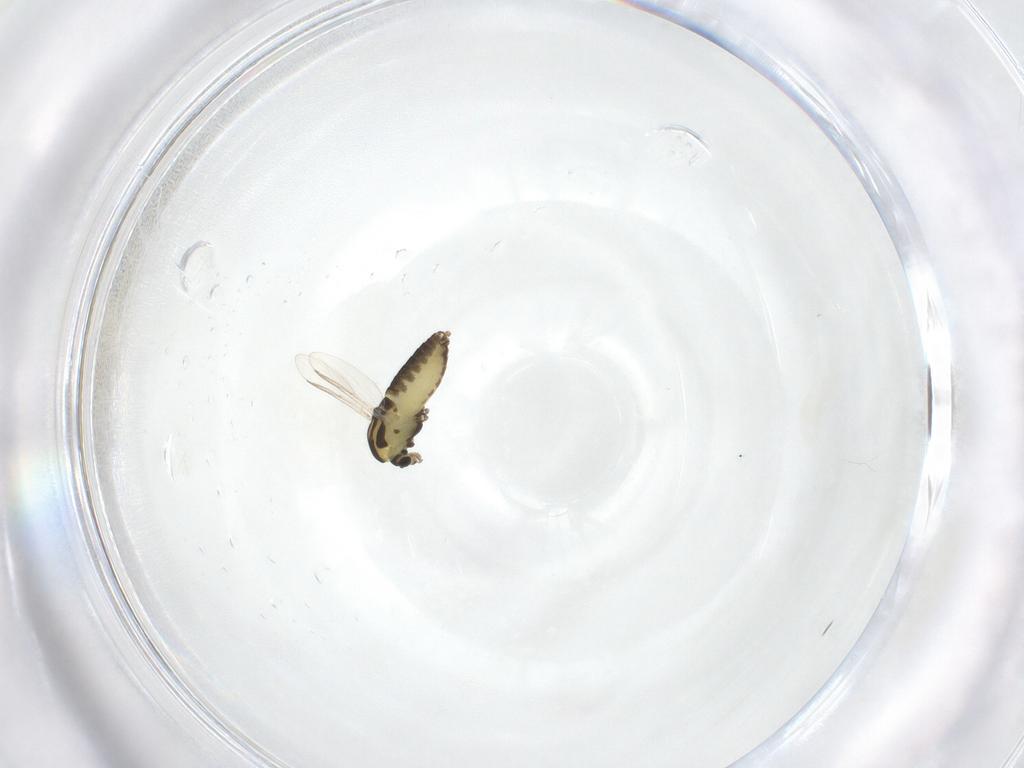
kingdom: Animalia
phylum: Arthropoda
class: Insecta
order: Diptera
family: Chironomidae
